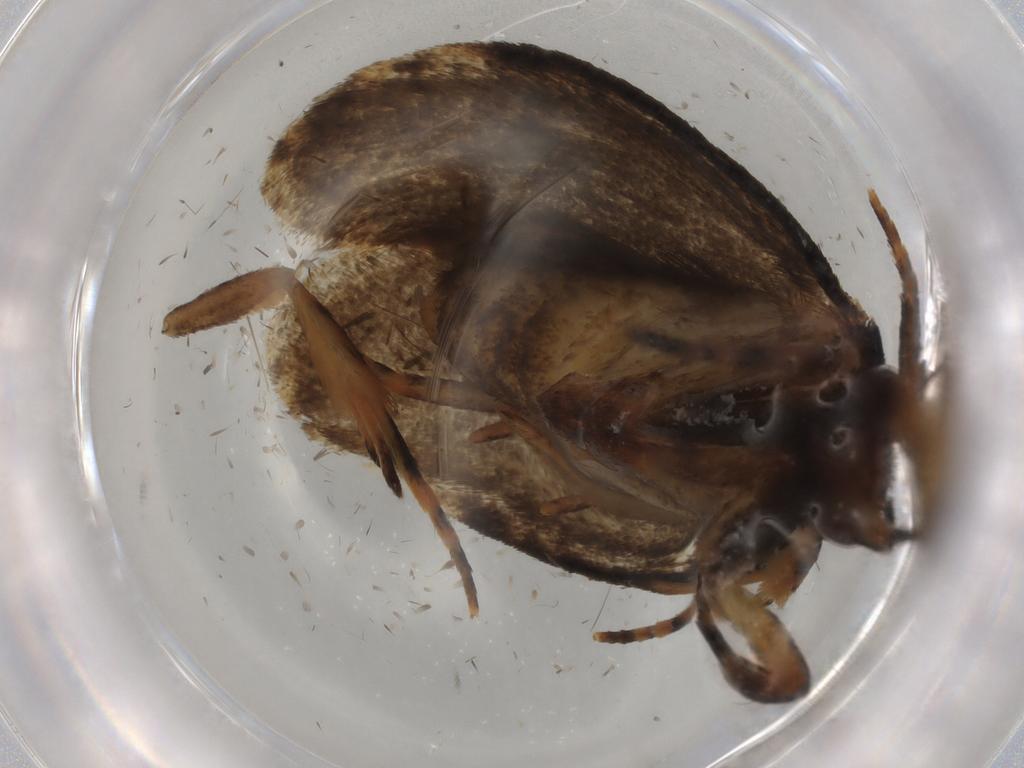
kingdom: Animalia
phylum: Arthropoda
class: Insecta
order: Lepidoptera
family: Tineidae
